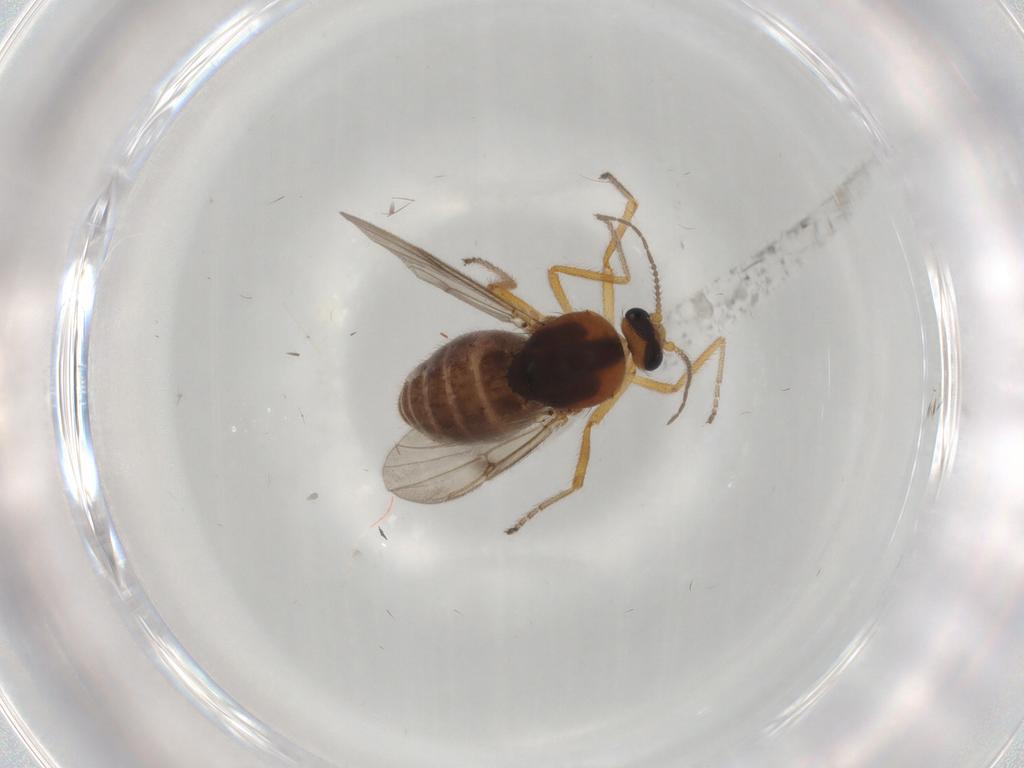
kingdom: Animalia
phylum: Arthropoda
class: Insecta
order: Diptera
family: Ceratopogonidae
